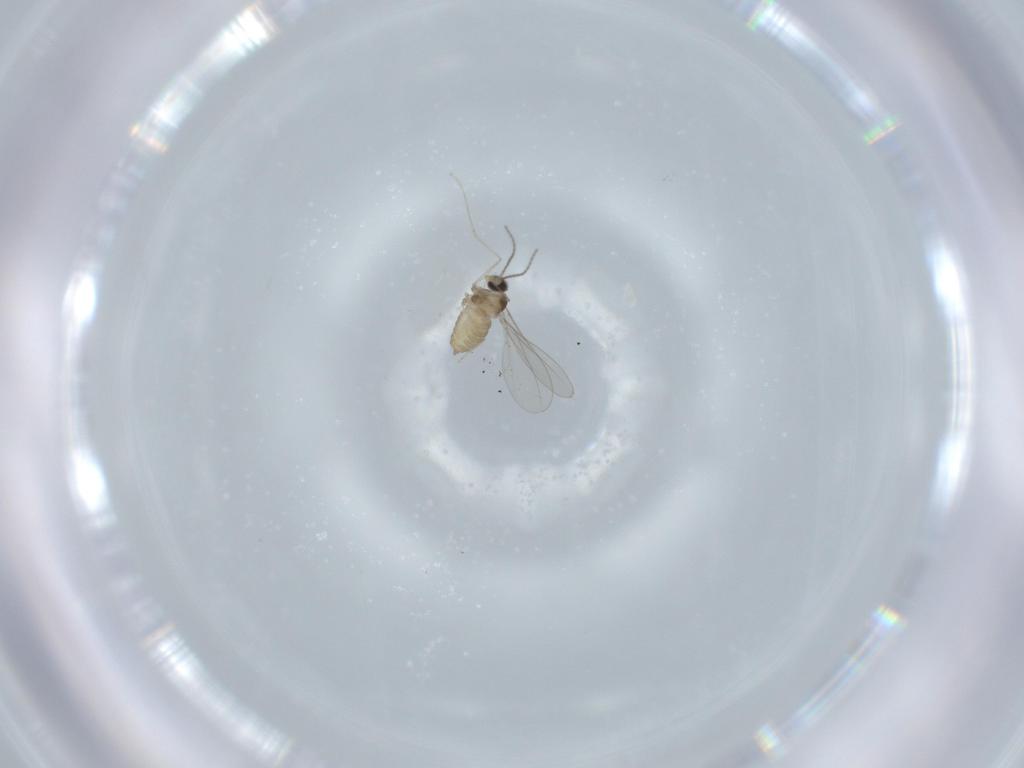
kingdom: Animalia
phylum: Arthropoda
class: Insecta
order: Diptera
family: Cecidomyiidae
